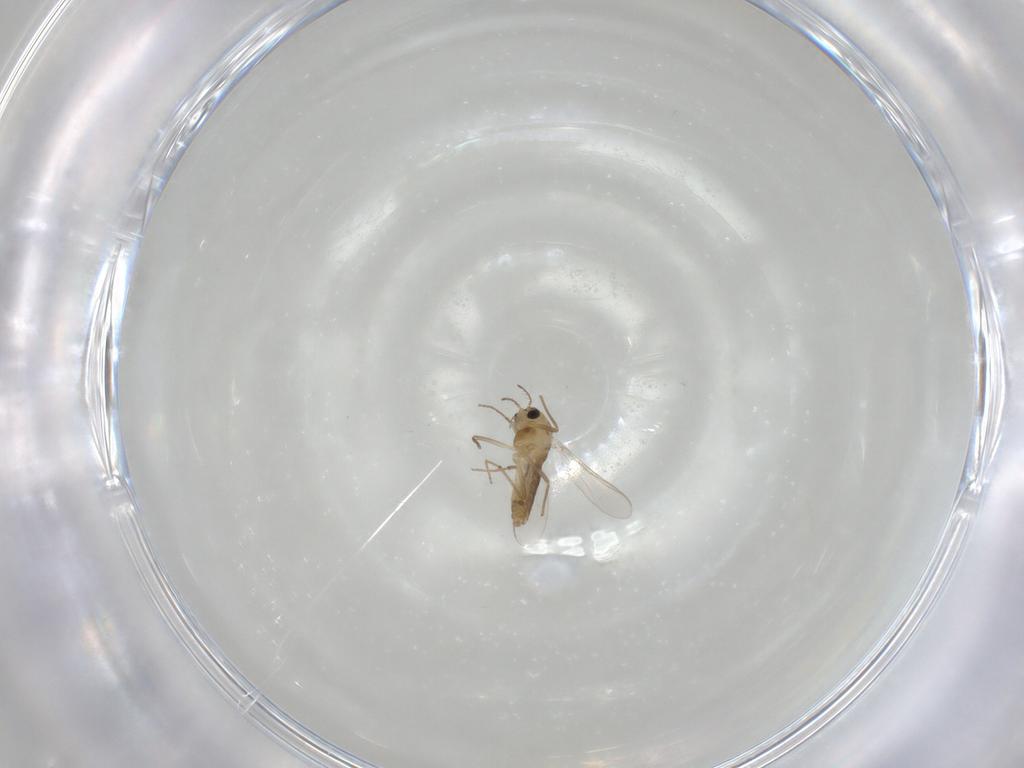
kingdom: Animalia
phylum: Arthropoda
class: Insecta
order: Diptera
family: Chironomidae
